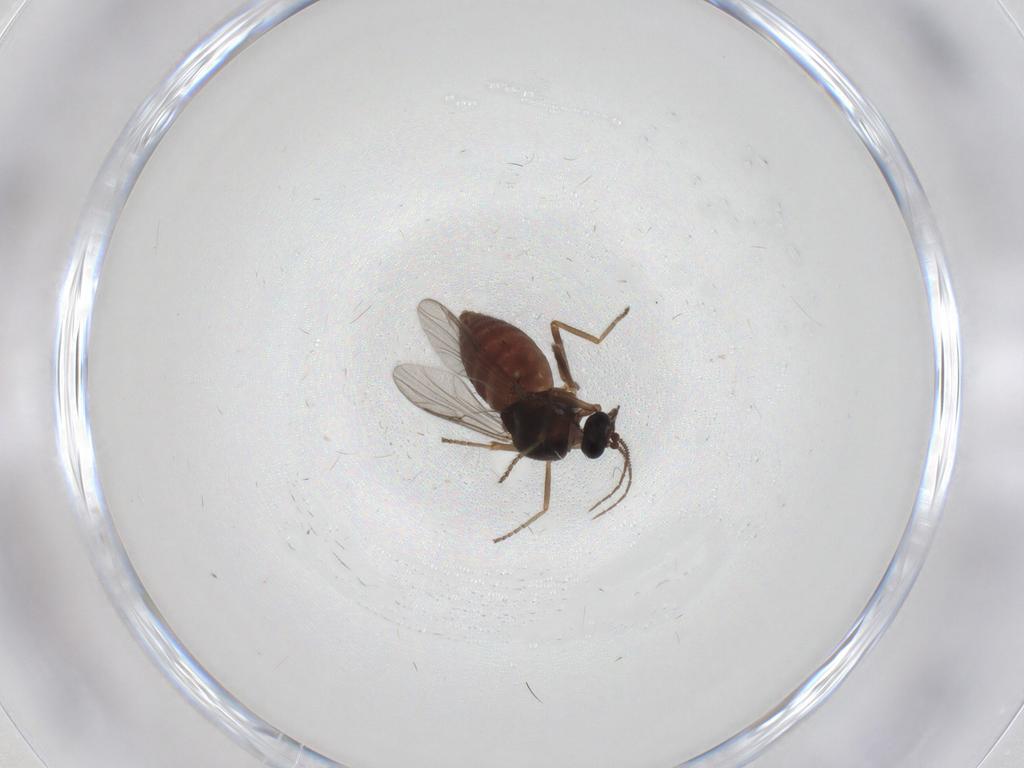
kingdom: Animalia
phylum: Arthropoda
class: Insecta
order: Diptera
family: Ceratopogonidae
